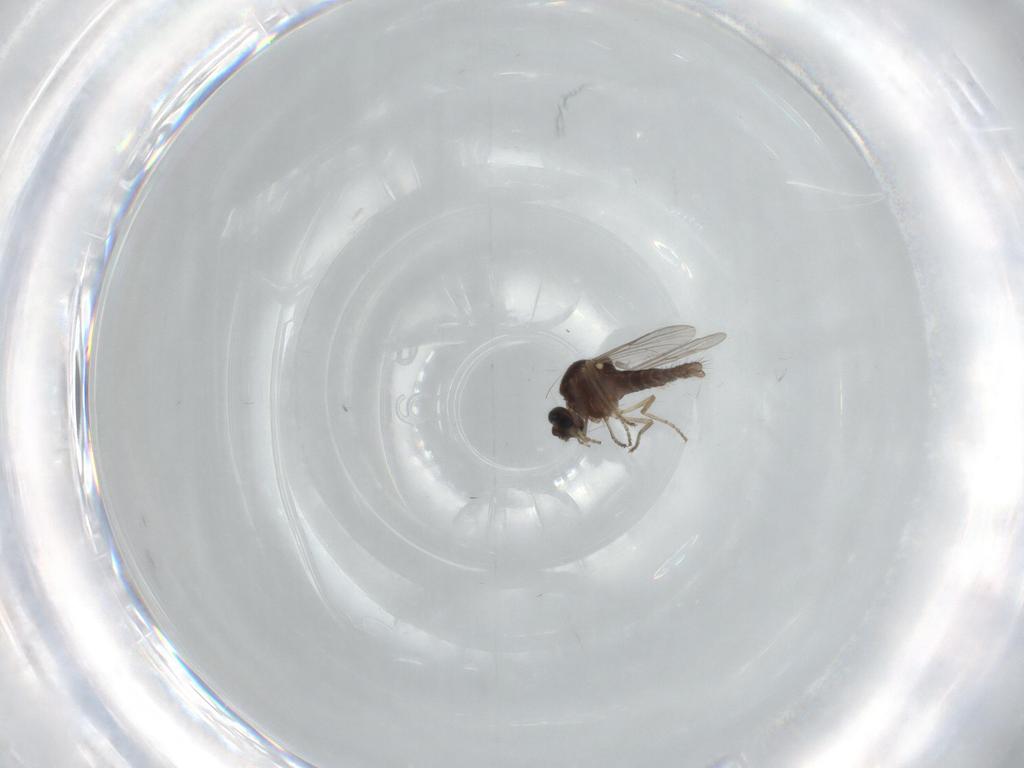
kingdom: Animalia
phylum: Arthropoda
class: Insecta
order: Diptera
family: Ceratopogonidae
